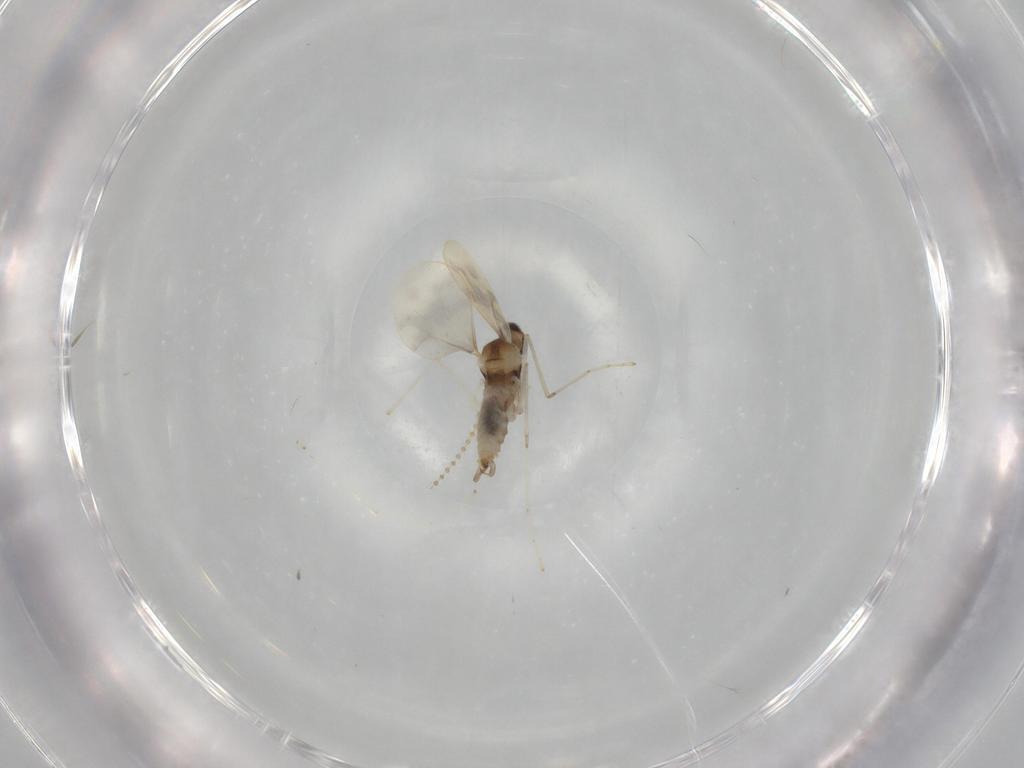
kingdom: Animalia
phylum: Arthropoda
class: Insecta
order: Diptera
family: Cecidomyiidae
